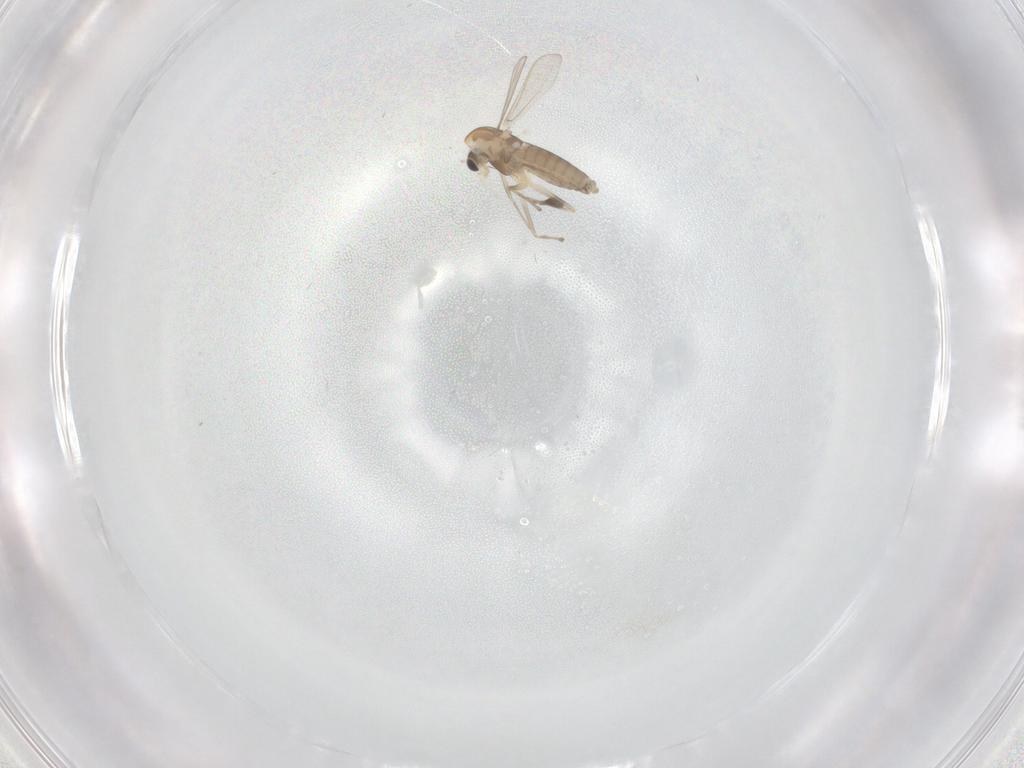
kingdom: Animalia
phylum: Arthropoda
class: Insecta
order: Diptera
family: Chironomidae
